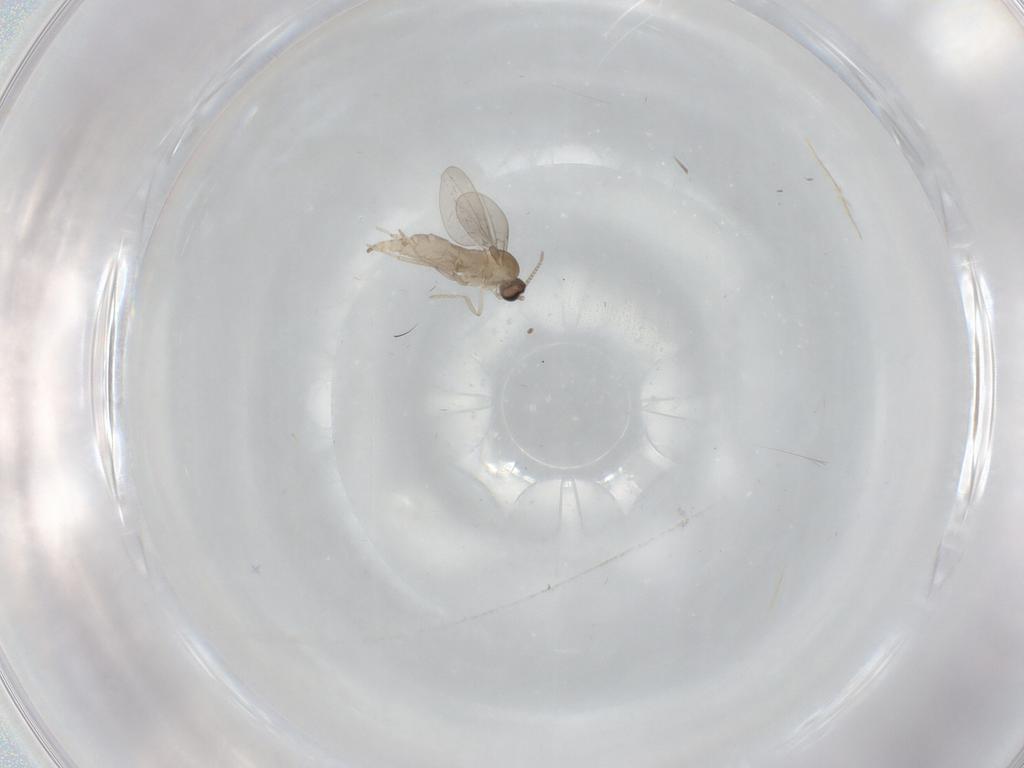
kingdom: Animalia
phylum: Arthropoda
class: Insecta
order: Diptera
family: Cecidomyiidae
